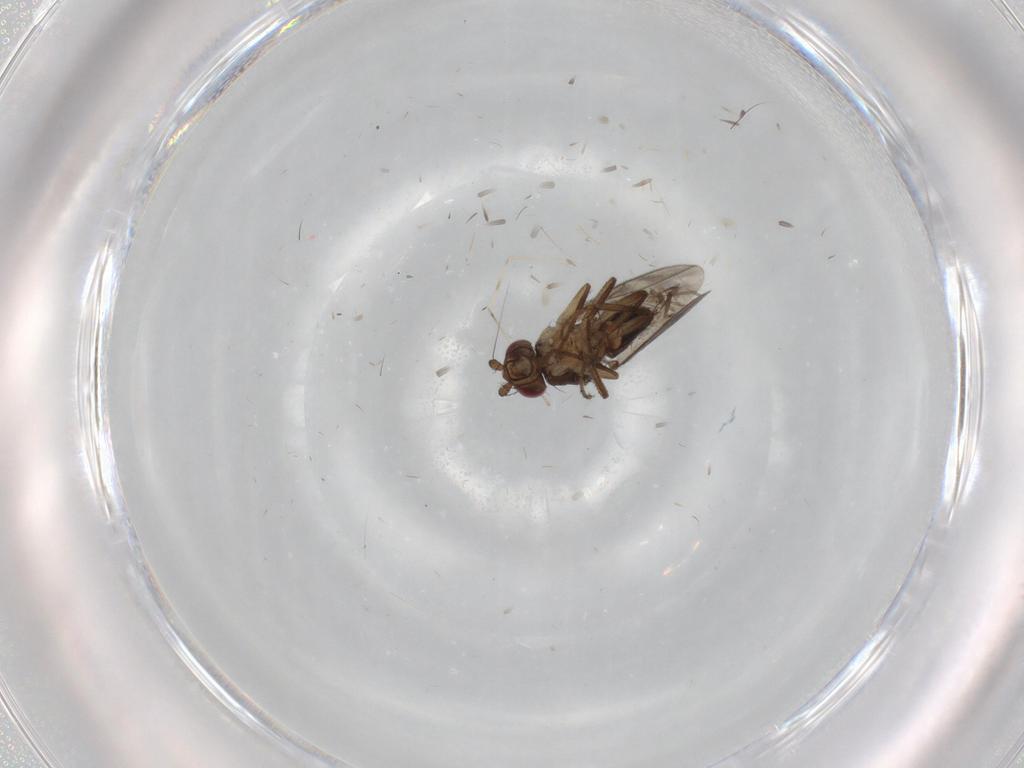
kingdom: Animalia
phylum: Arthropoda
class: Insecta
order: Diptera
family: Sphaeroceridae
